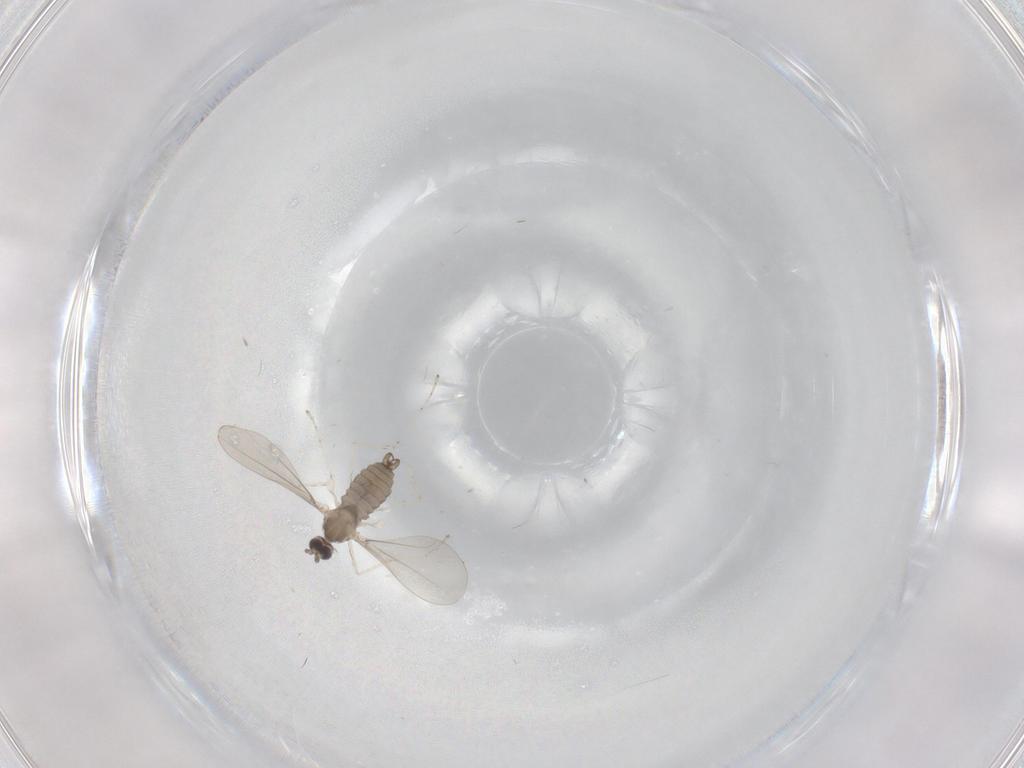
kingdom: Animalia
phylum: Arthropoda
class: Insecta
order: Diptera
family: Cecidomyiidae
